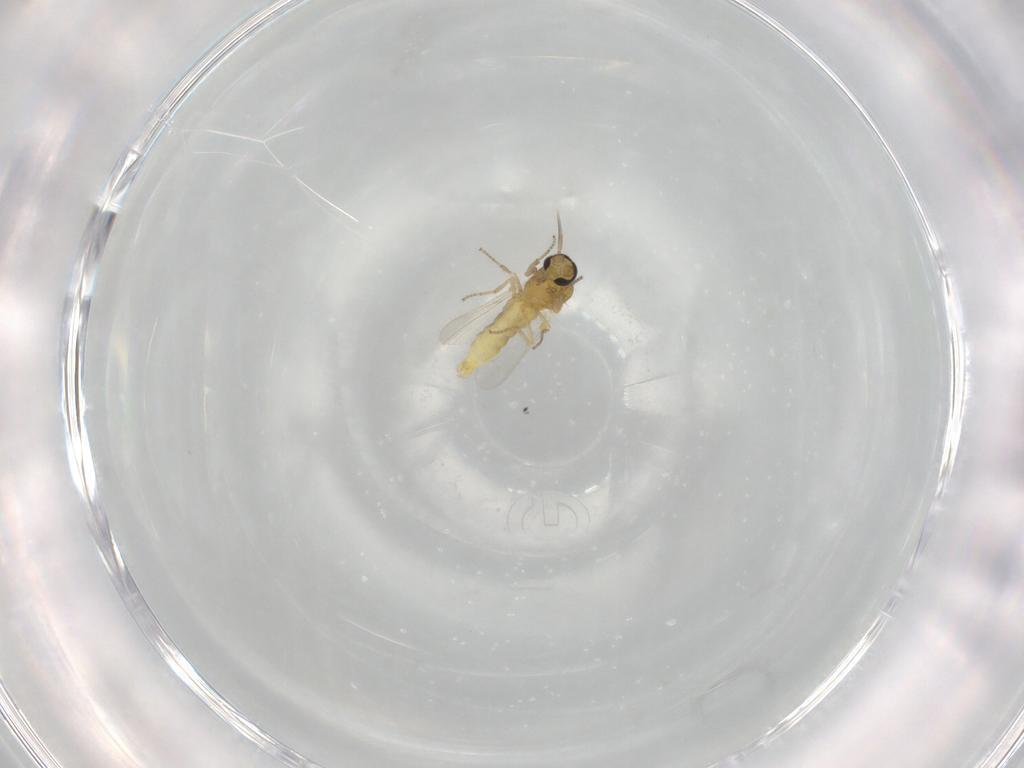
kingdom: Animalia
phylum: Arthropoda
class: Insecta
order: Diptera
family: Ceratopogonidae
